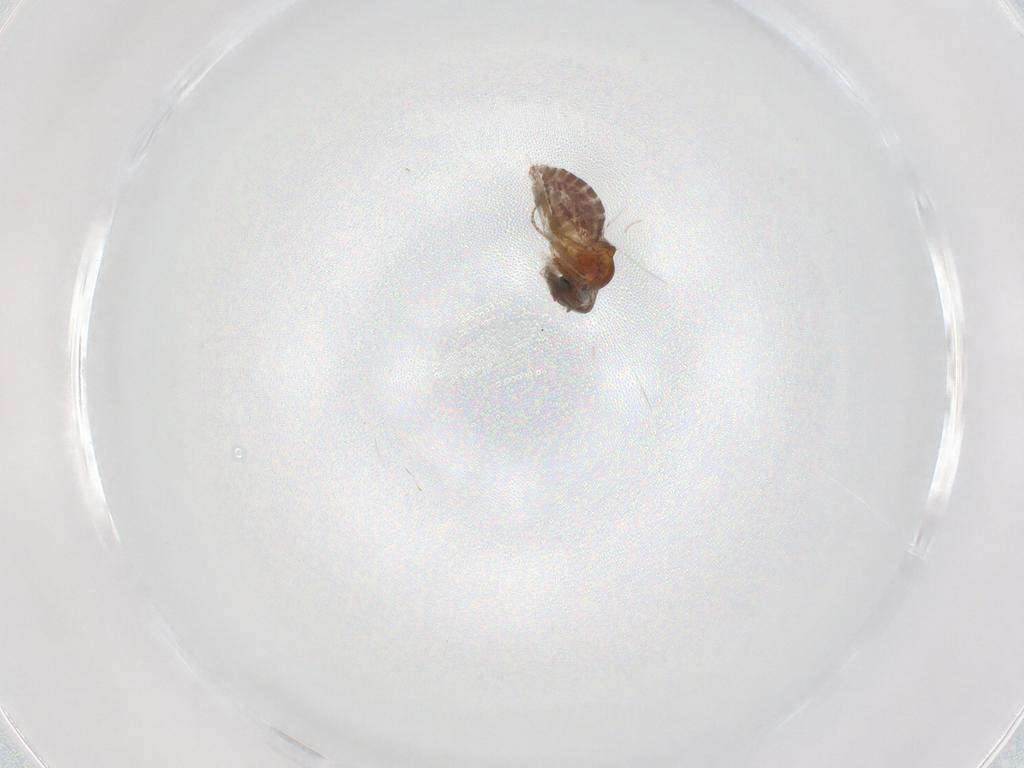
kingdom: Animalia
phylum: Arthropoda
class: Insecta
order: Diptera
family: Ceratopogonidae
